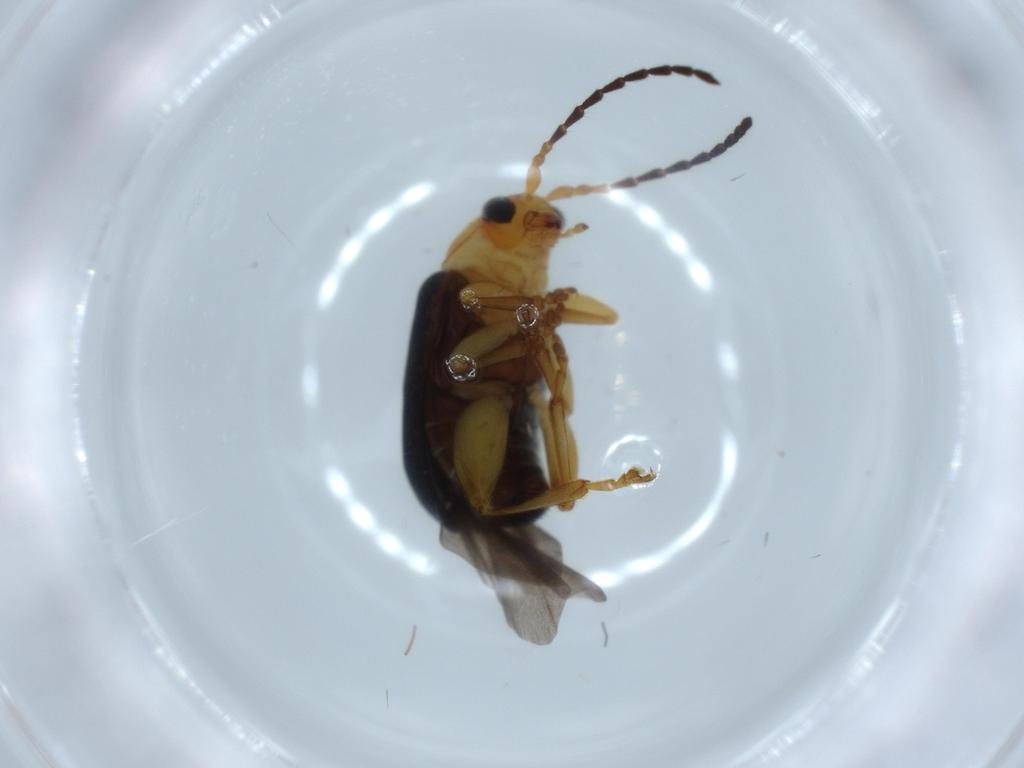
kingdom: Animalia
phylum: Arthropoda
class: Insecta
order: Coleoptera
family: Chrysomelidae
